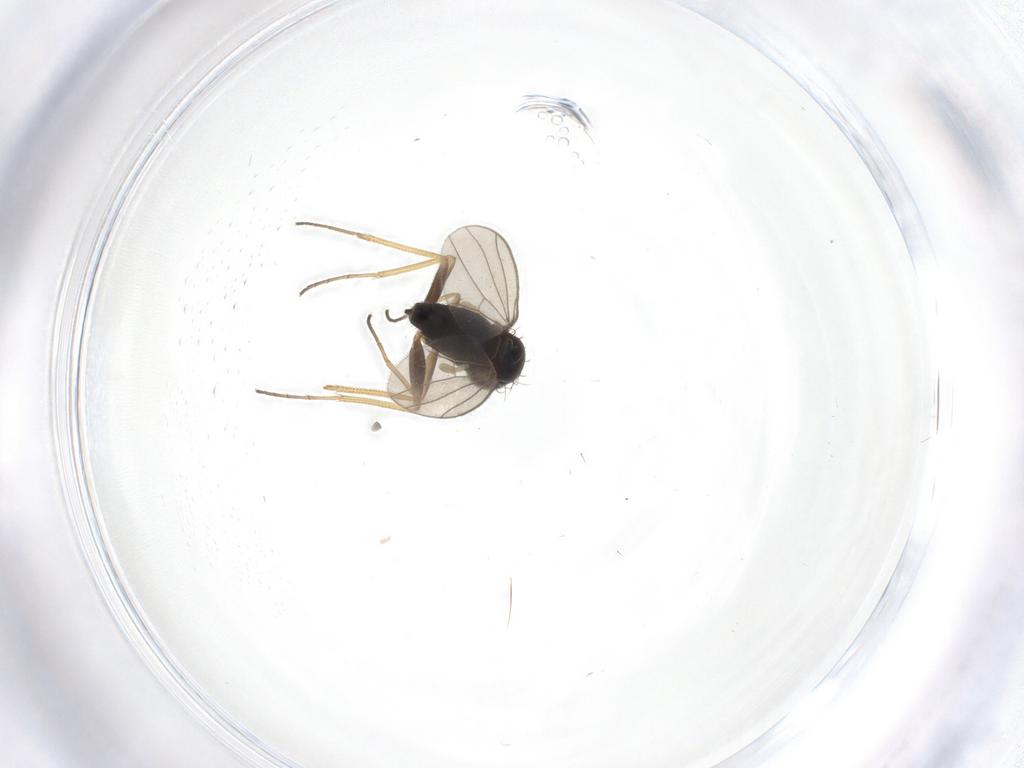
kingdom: Animalia
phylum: Arthropoda
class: Insecta
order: Diptera
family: Dolichopodidae
